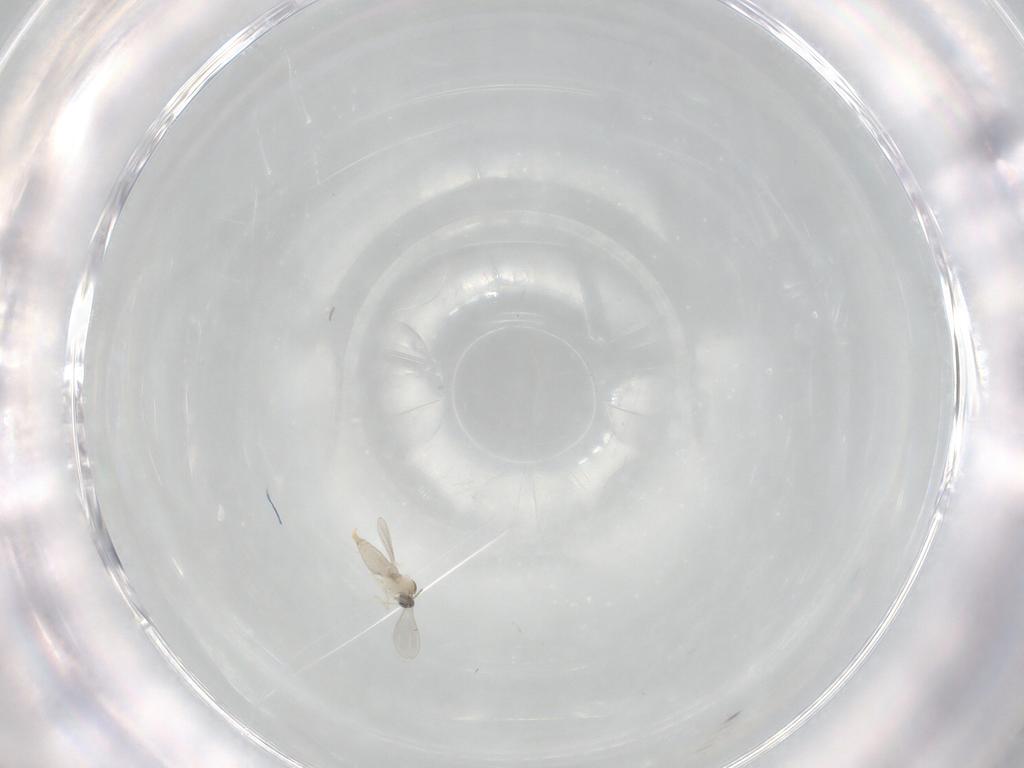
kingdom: Animalia
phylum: Arthropoda
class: Insecta
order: Diptera
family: Cecidomyiidae
